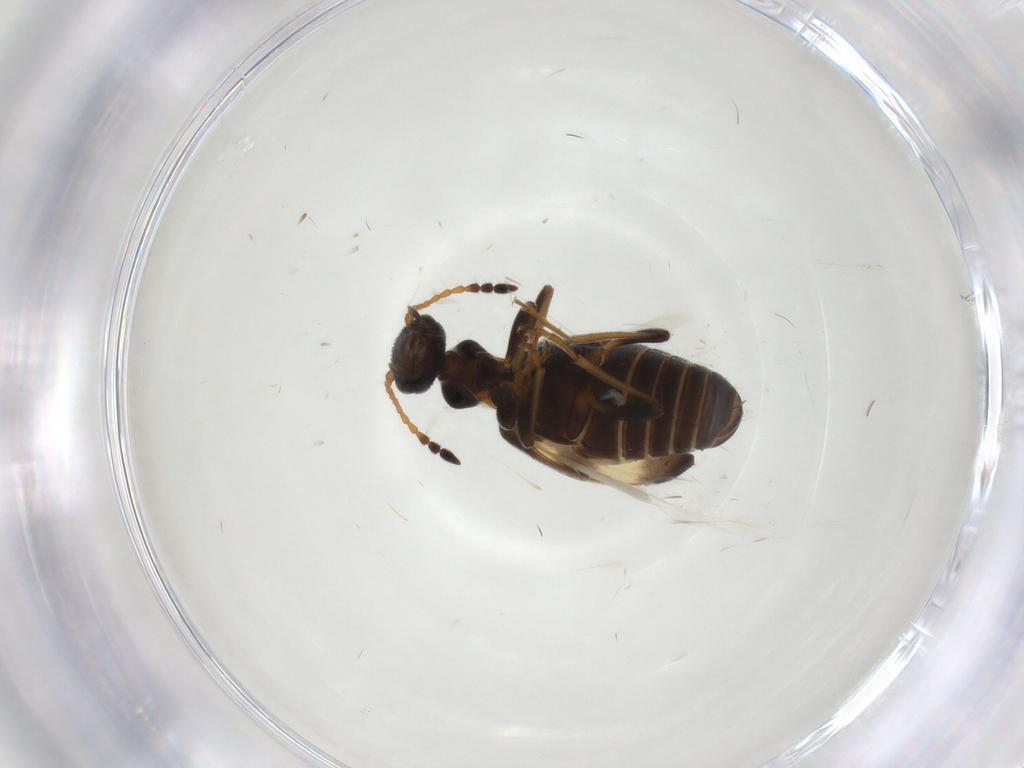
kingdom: Animalia
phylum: Arthropoda
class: Insecta
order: Coleoptera
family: Anthicidae
